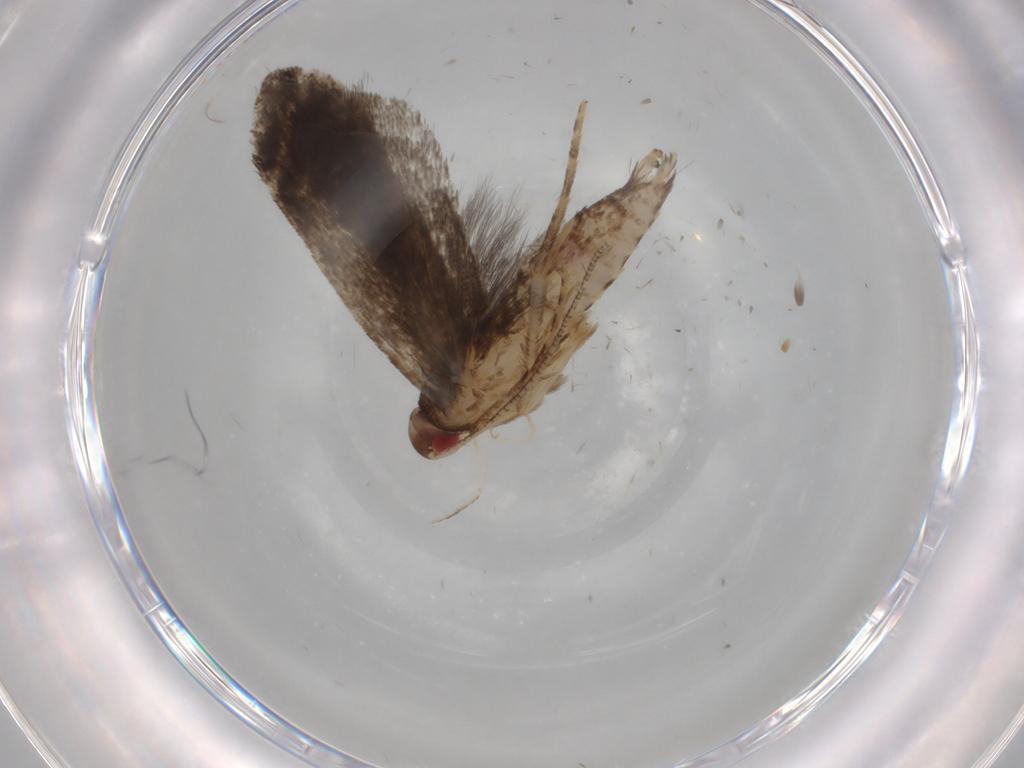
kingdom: Animalia
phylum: Arthropoda
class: Insecta
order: Lepidoptera
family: Gelechiidae
